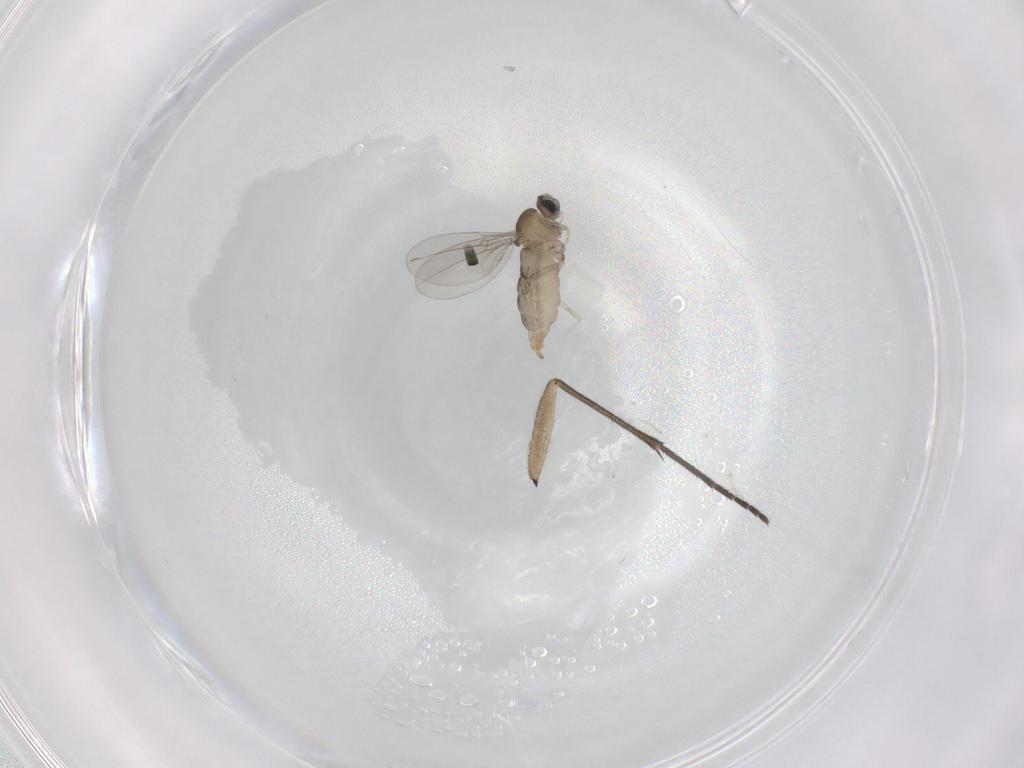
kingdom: Animalia
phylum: Arthropoda
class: Insecta
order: Diptera
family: Cecidomyiidae
